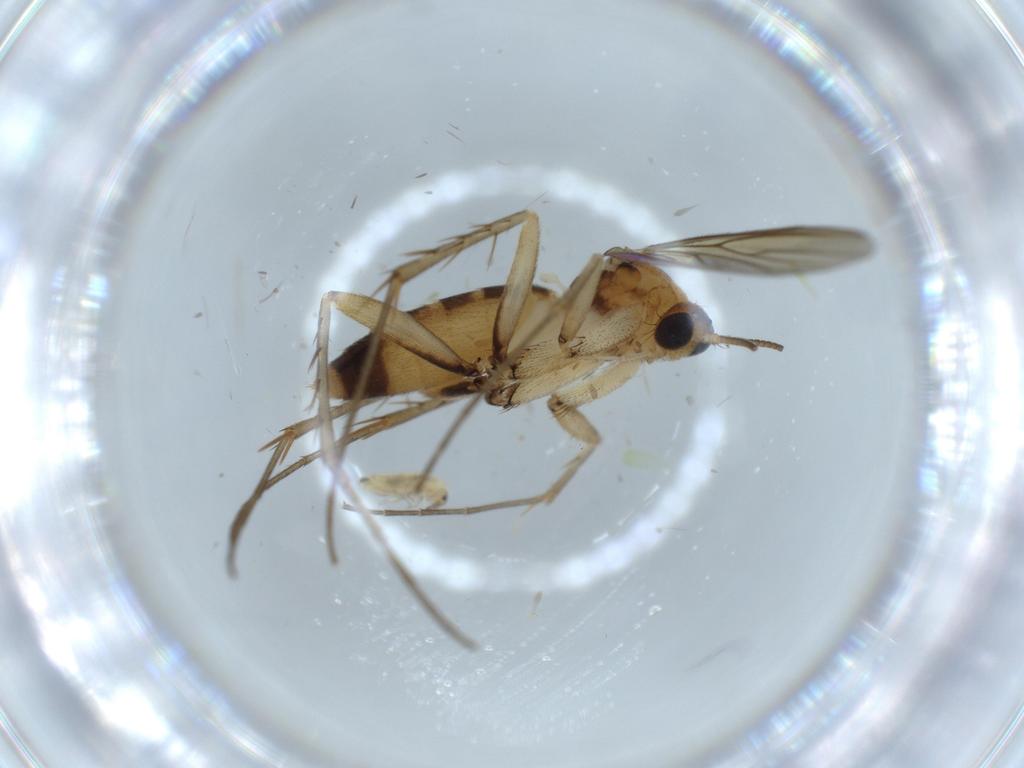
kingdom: Animalia
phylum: Arthropoda
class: Insecta
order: Diptera
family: Mycetophilidae
